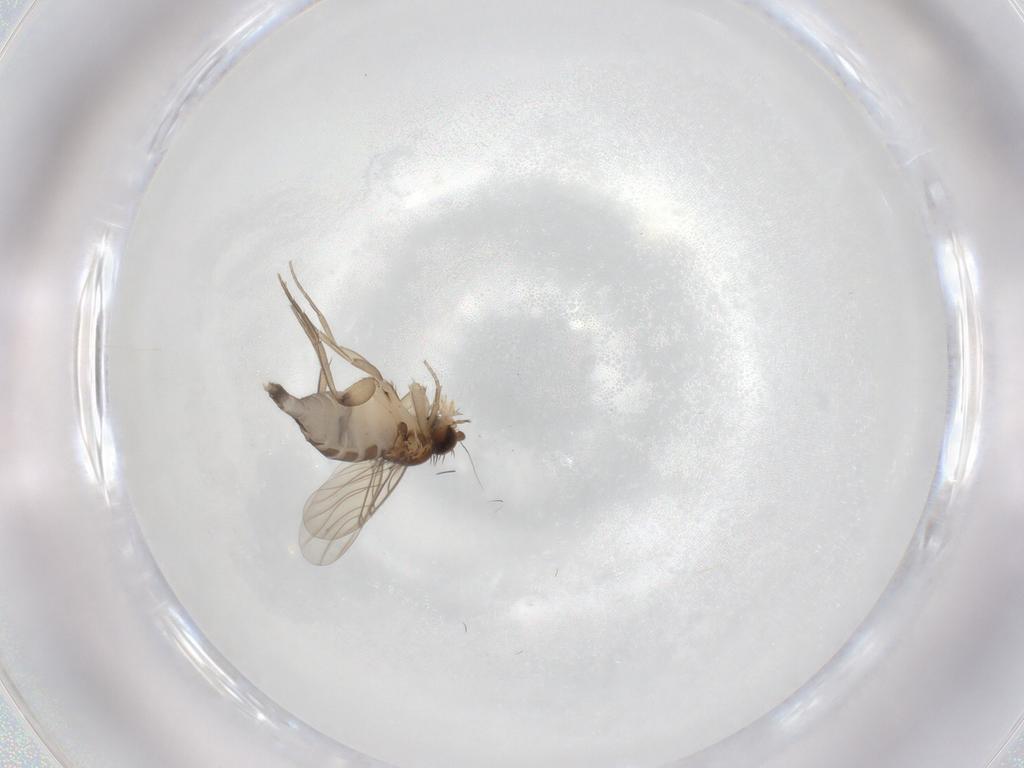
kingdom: Animalia
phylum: Arthropoda
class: Insecta
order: Diptera
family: Phoridae
